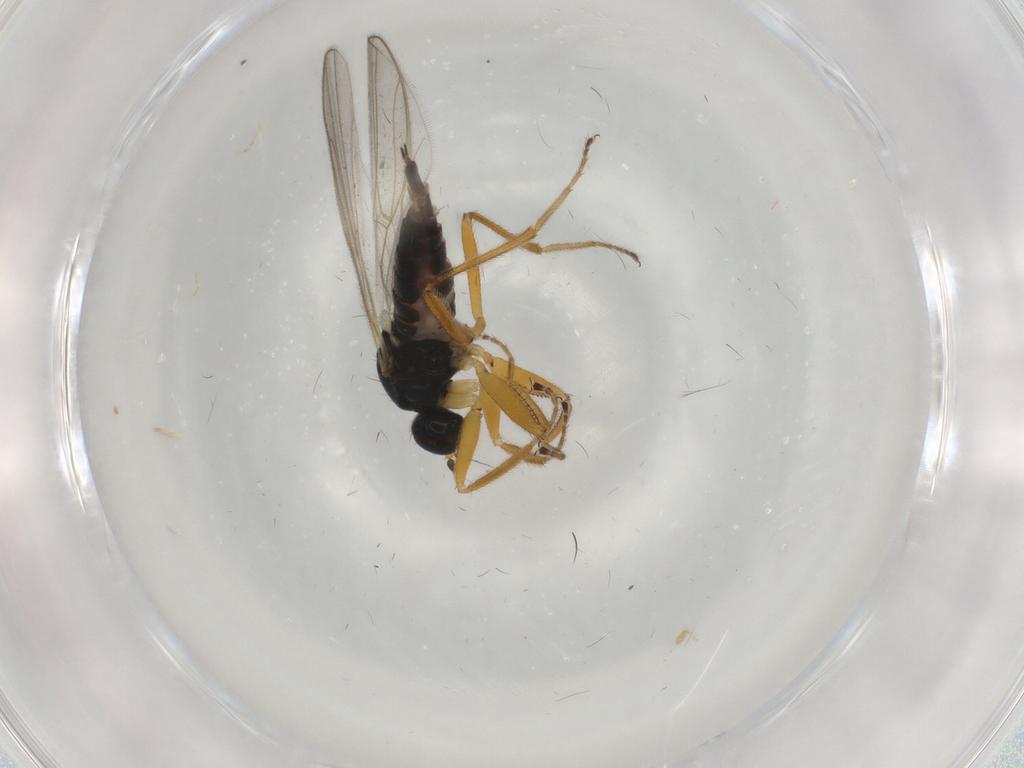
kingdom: Animalia
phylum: Arthropoda
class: Insecta
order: Diptera
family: Hybotidae
